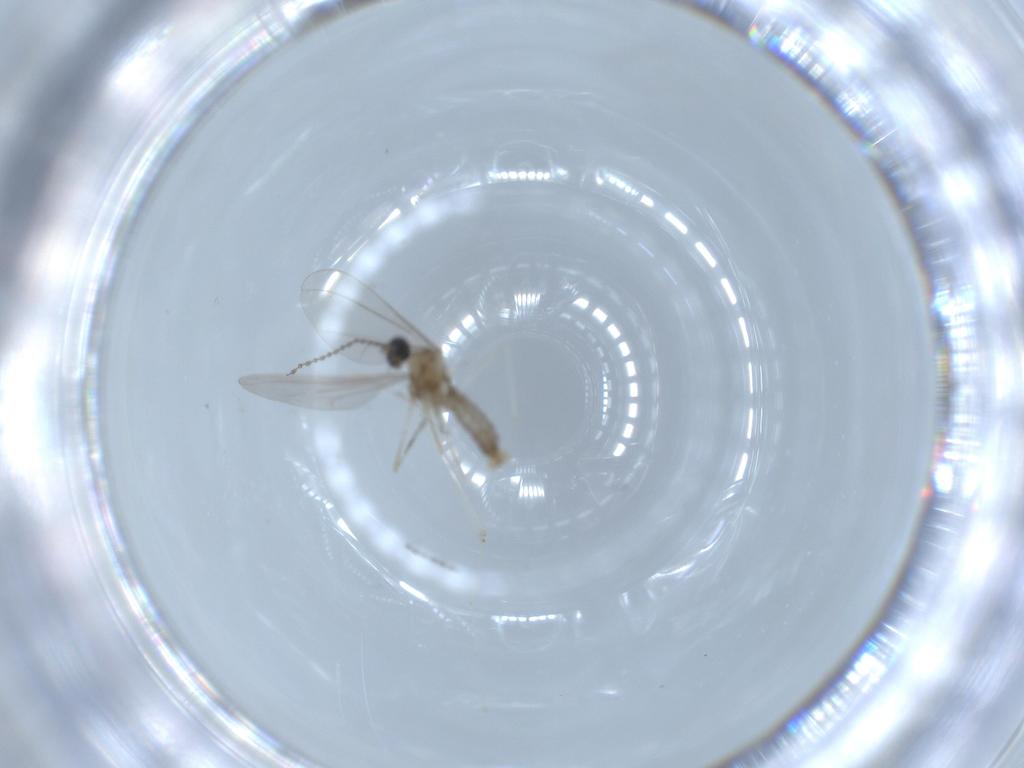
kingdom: Animalia
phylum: Arthropoda
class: Insecta
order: Diptera
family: Cecidomyiidae
